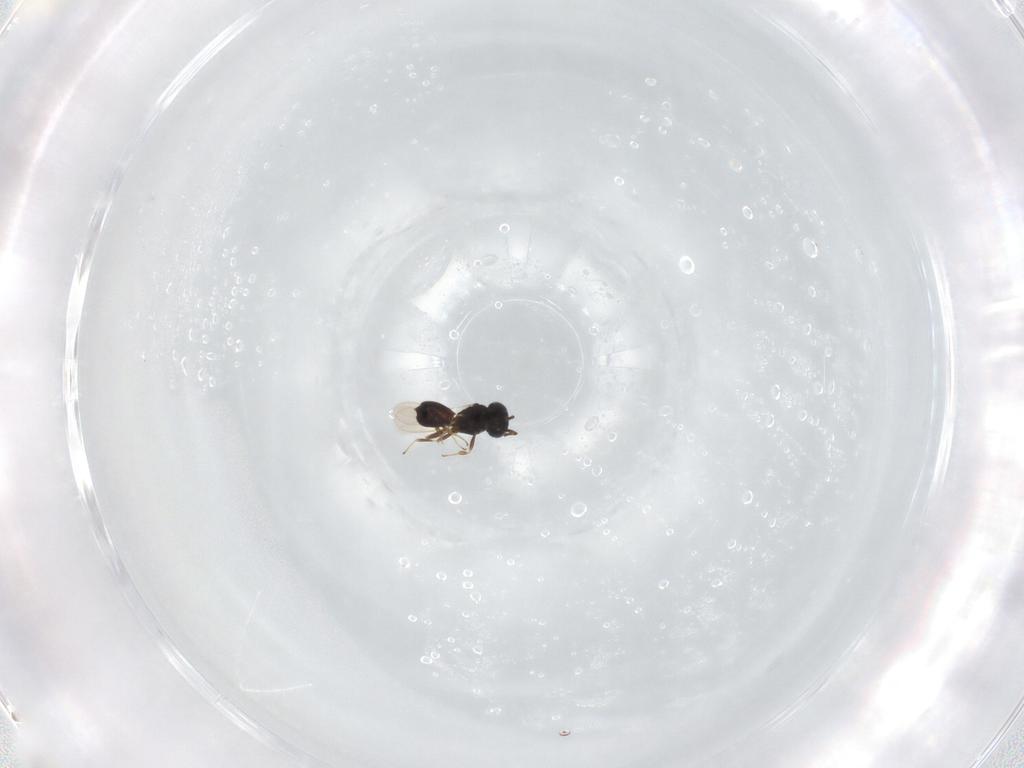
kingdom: Animalia
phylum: Arthropoda
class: Insecta
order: Hymenoptera
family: Scelionidae
